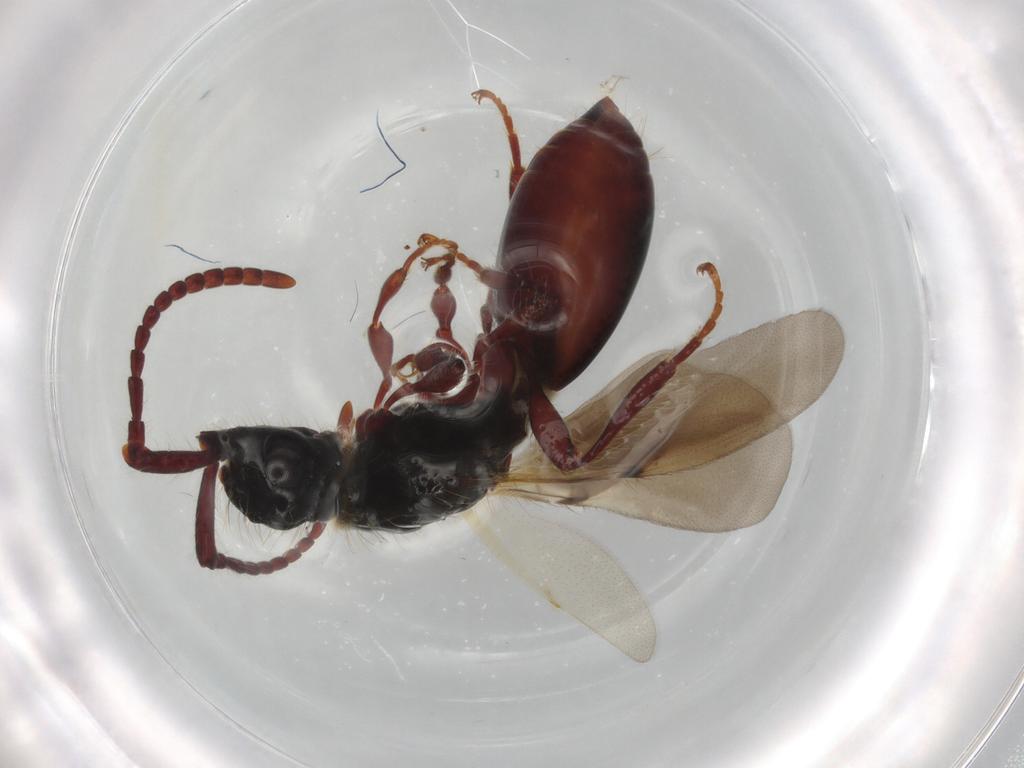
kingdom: Animalia
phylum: Arthropoda
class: Insecta
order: Hymenoptera
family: Diapriidae
